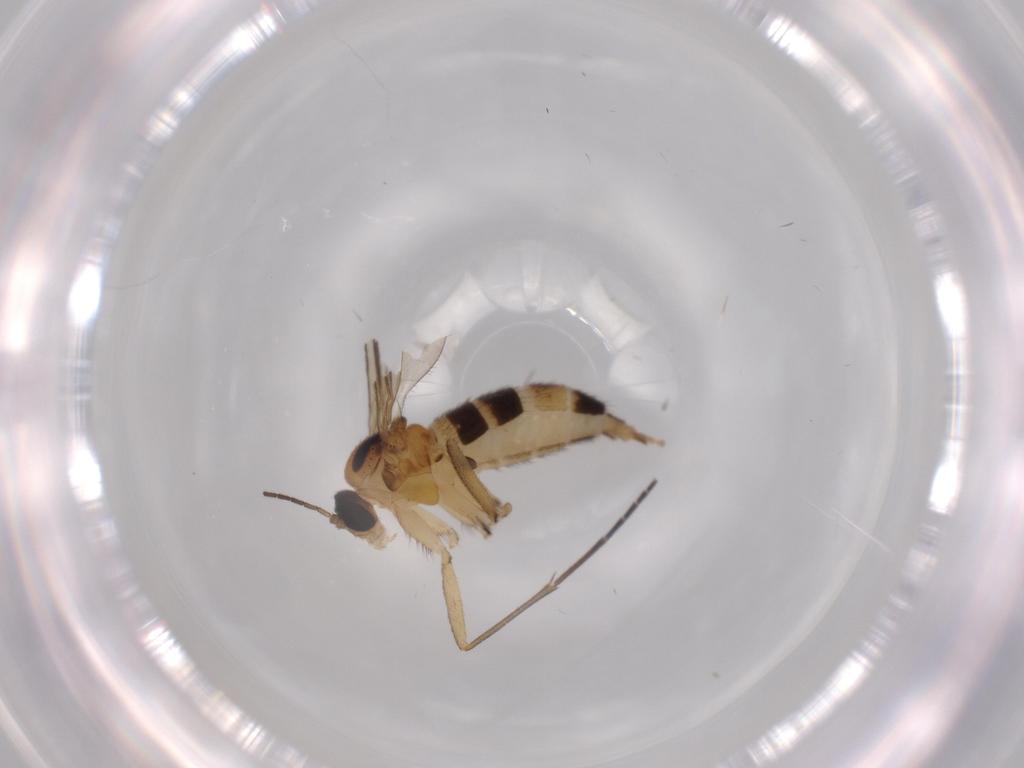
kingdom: Animalia
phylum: Arthropoda
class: Insecta
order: Diptera
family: Sciaridae
